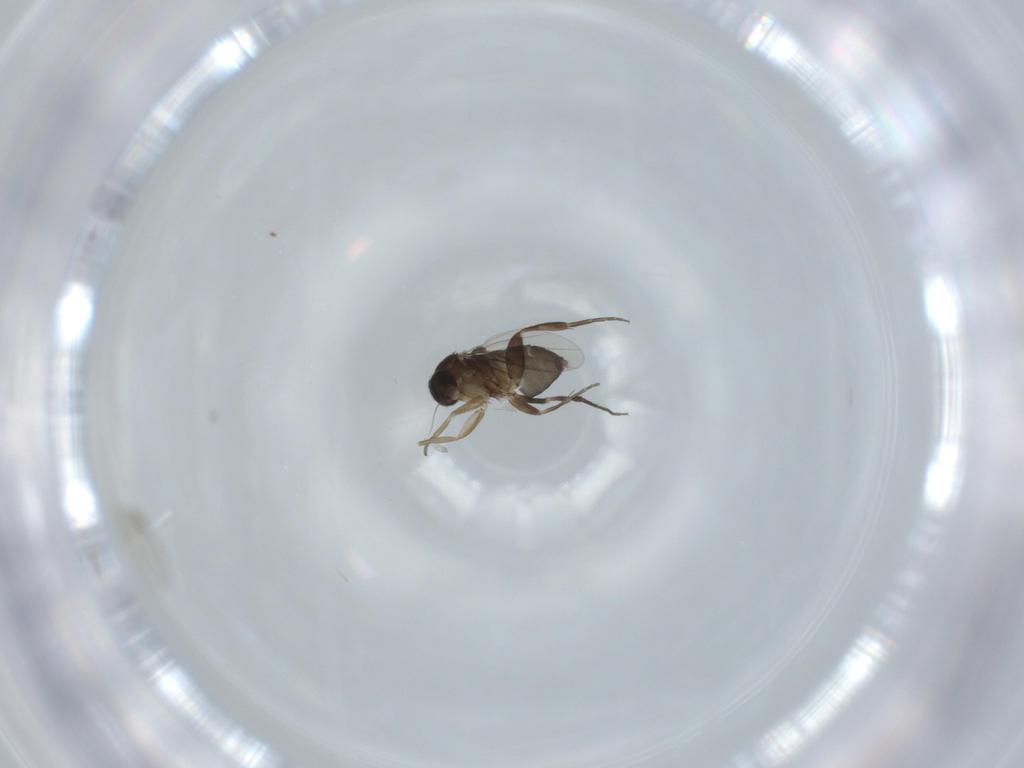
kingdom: Animalia
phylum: Arthropoda
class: Insecta
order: Diptera
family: Phoridae
